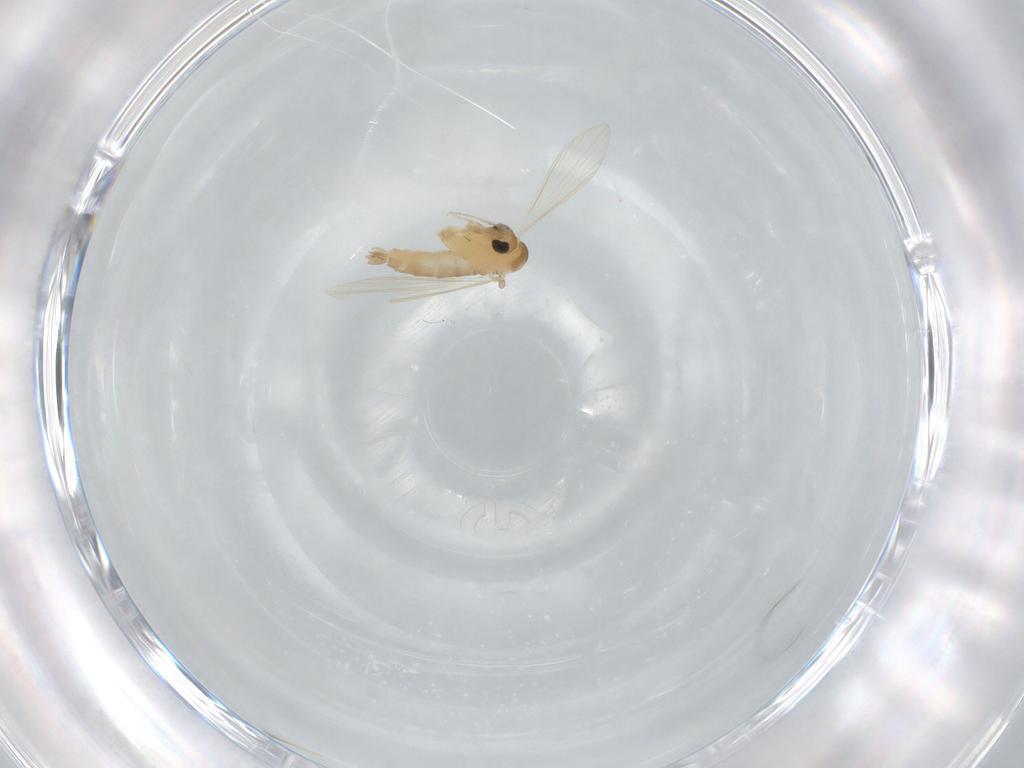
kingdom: Animalia
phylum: Arthropoda
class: Insecta
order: Diptera
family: Psychodidae
